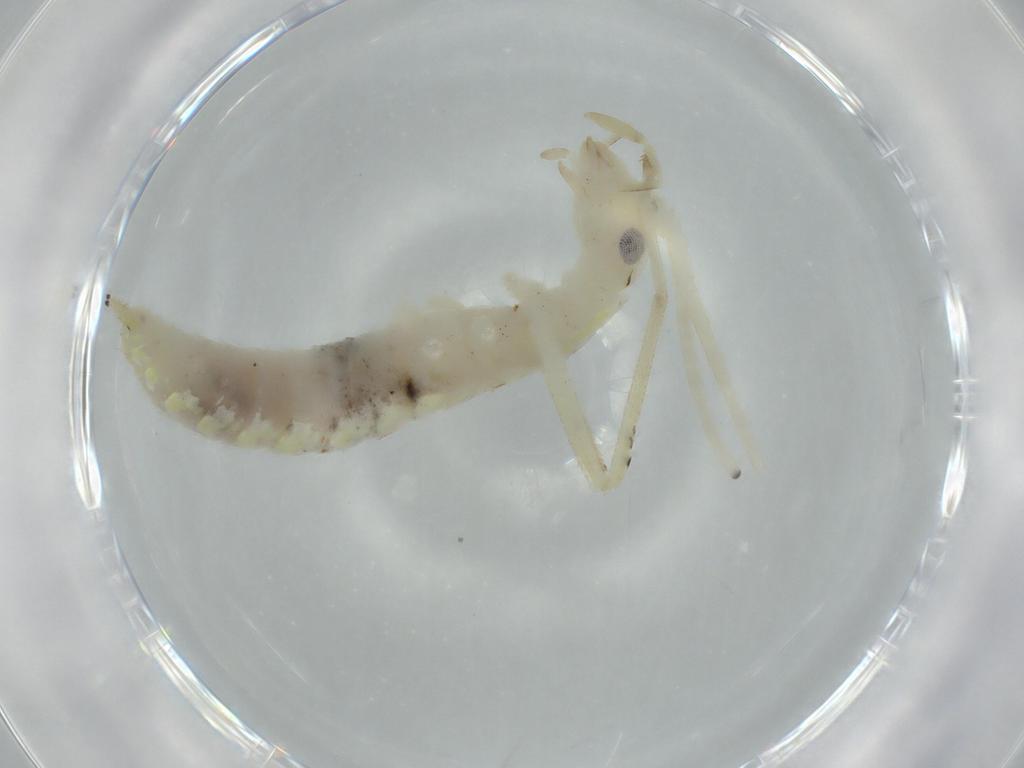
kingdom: Animalia
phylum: Arthropoda
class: Insecta
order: Orthoptera
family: Oecanthidae
